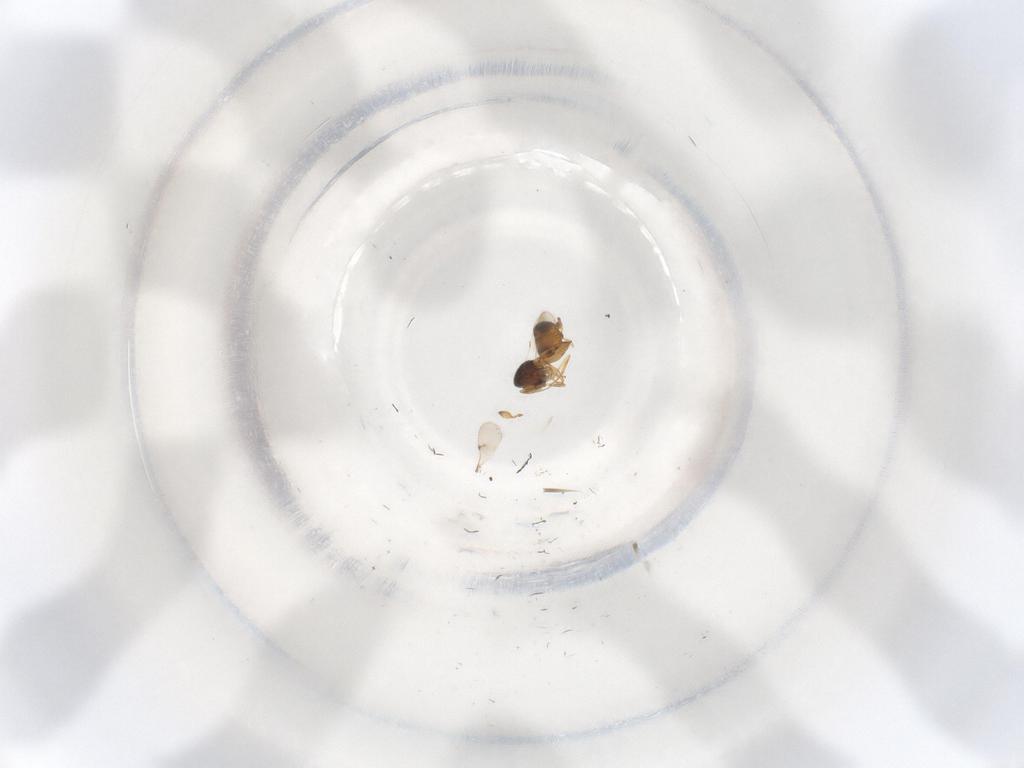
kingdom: Animalia
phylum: Arthropoda
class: Insecta
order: Hymenoptera
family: Scelionidae
